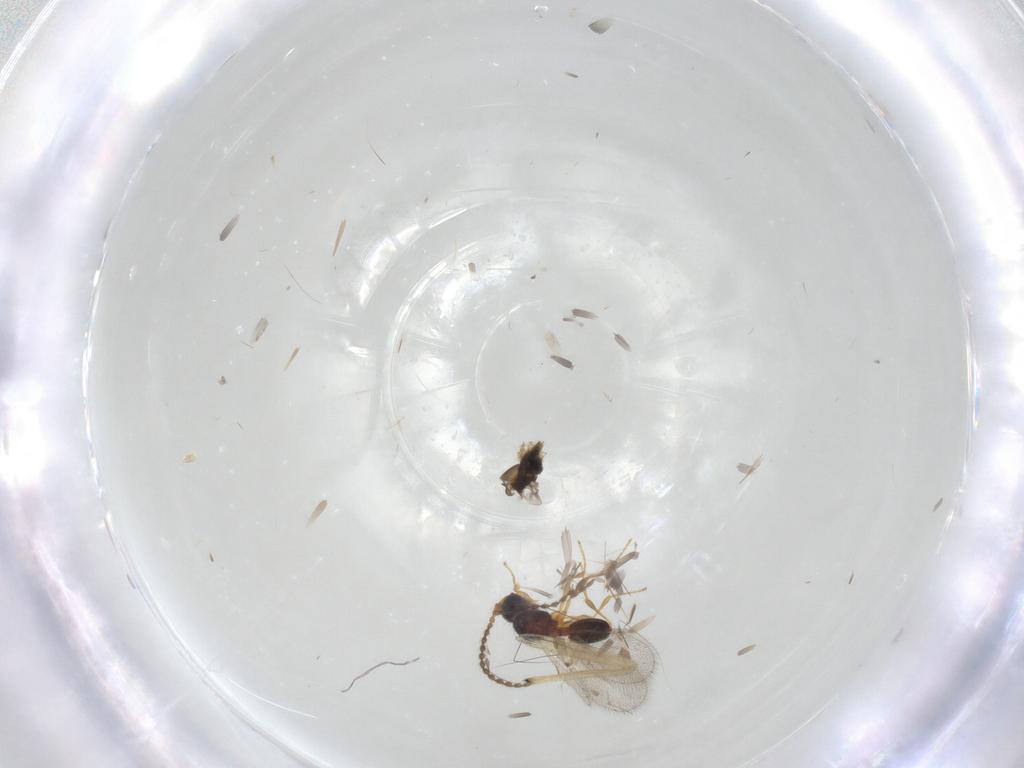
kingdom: Animalia
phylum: Arthropoda
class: Insecta
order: Hymenoptera
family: Diapriidae
